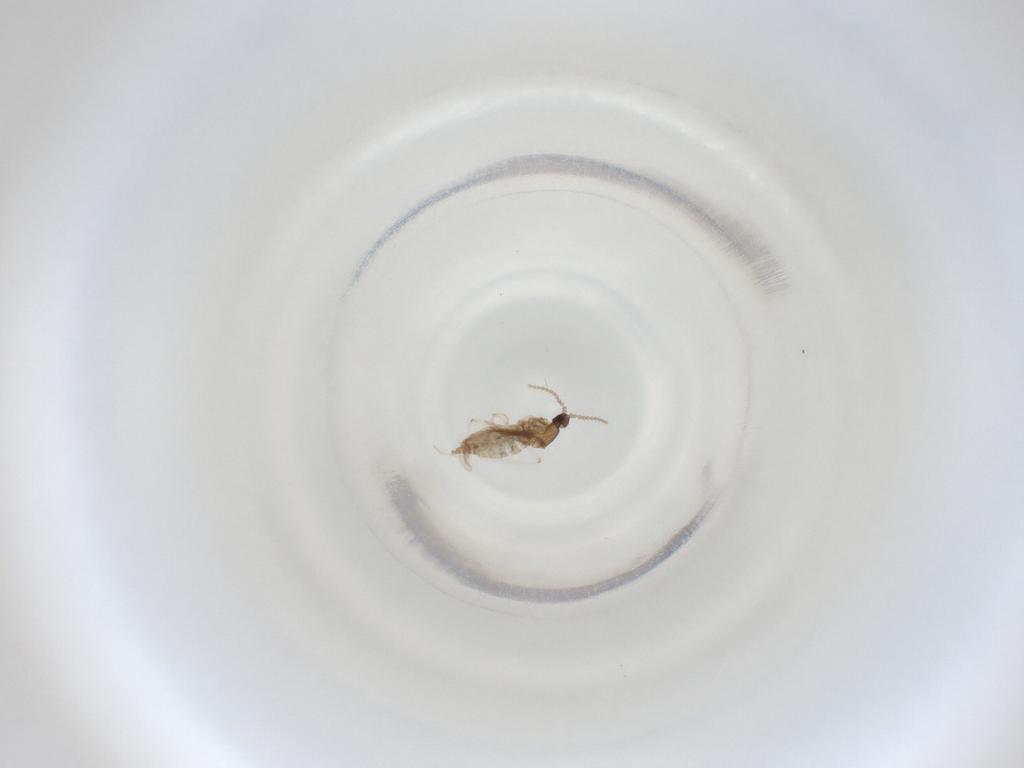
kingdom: Animalia
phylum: Arthropoda
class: Insecta
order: Diptera
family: Cecidomyiidae
